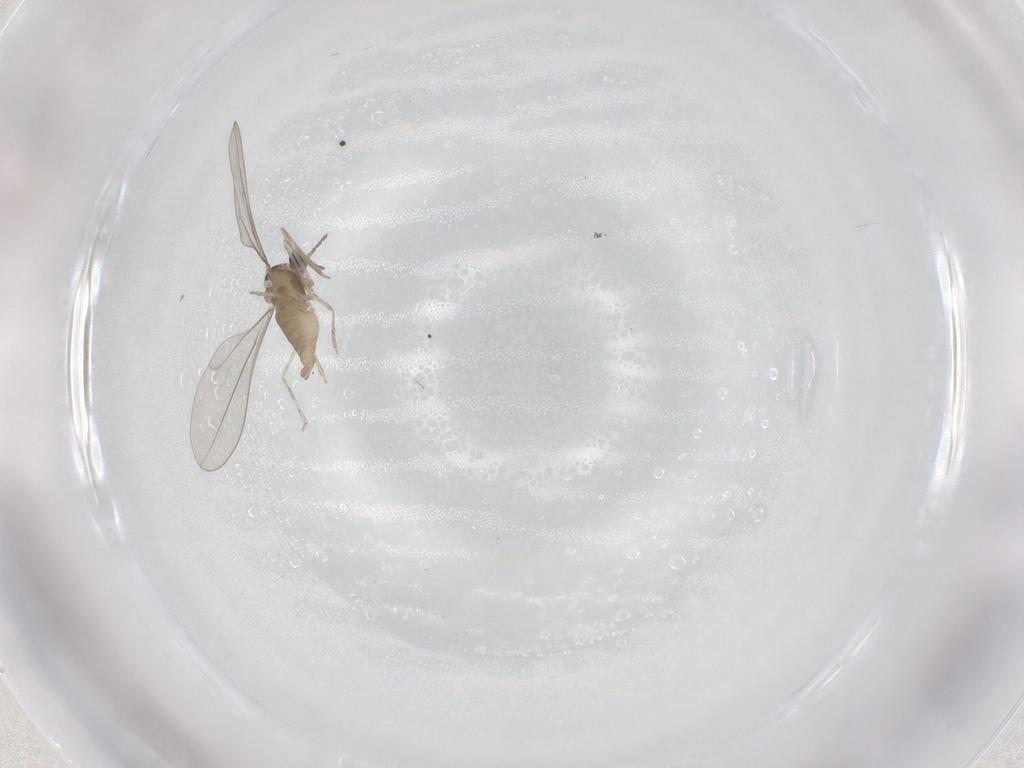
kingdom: Animalia
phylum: Arthropoda
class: Insecta
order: Diptera
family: Cecidomyiidae
